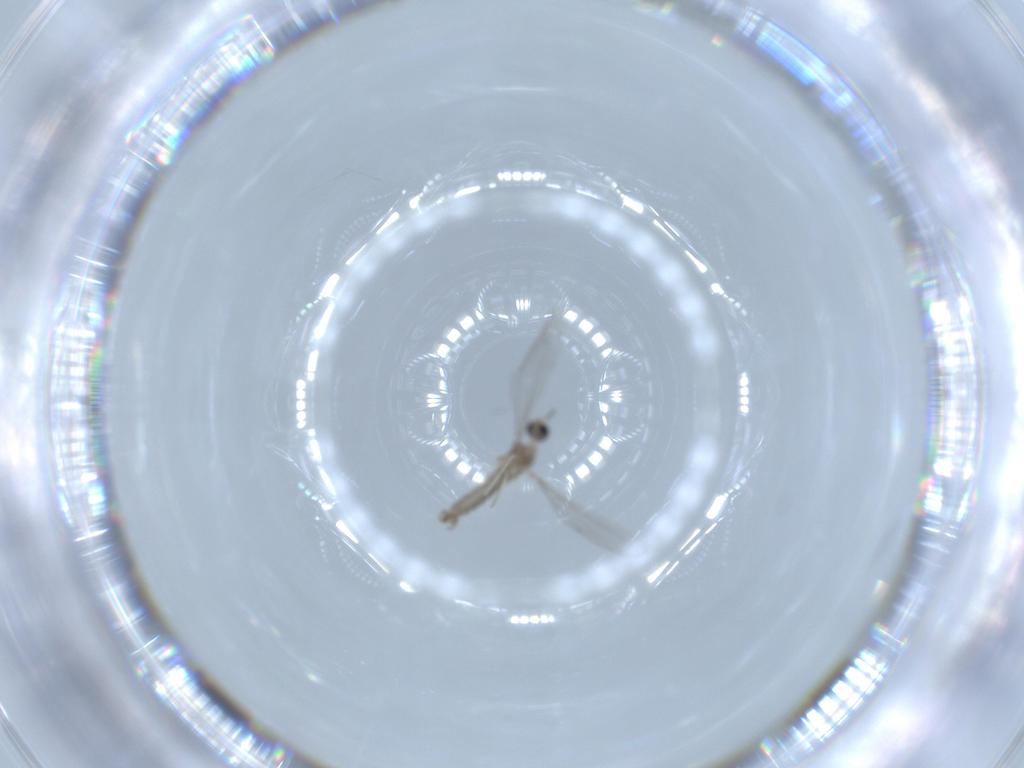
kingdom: Animalia
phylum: Arthropoda
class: Insecta
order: Diptera
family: Cecidomyiidae
